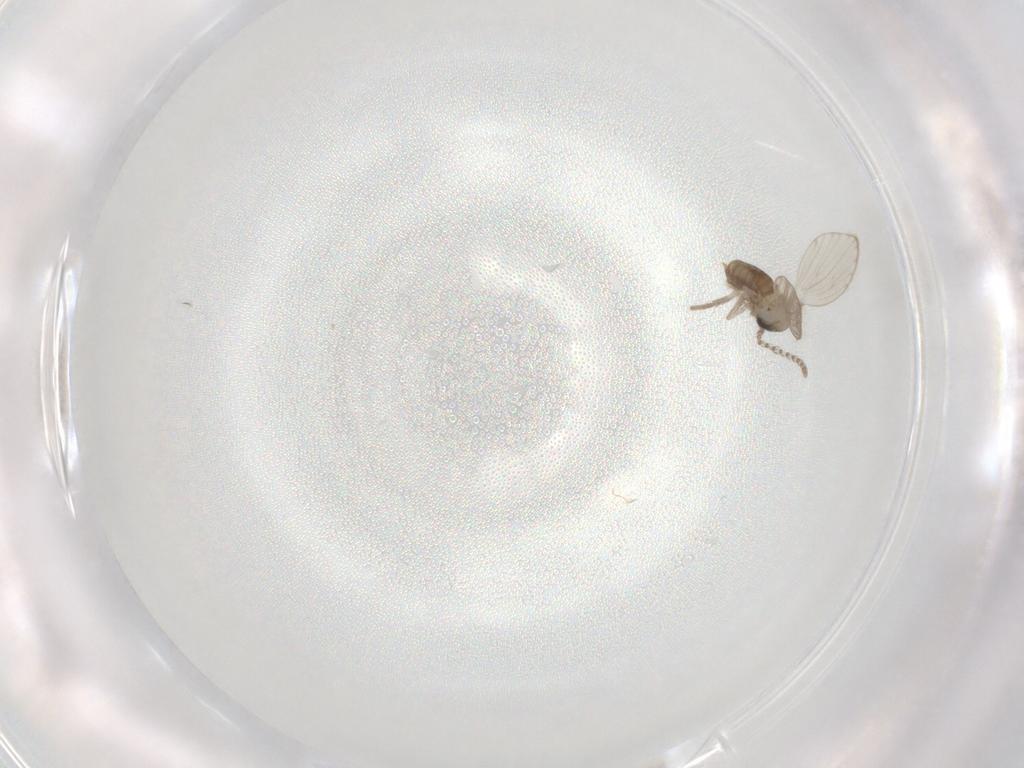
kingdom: Animalia
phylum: Arthropoda
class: Insecta
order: Diptera
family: Psychodidae
